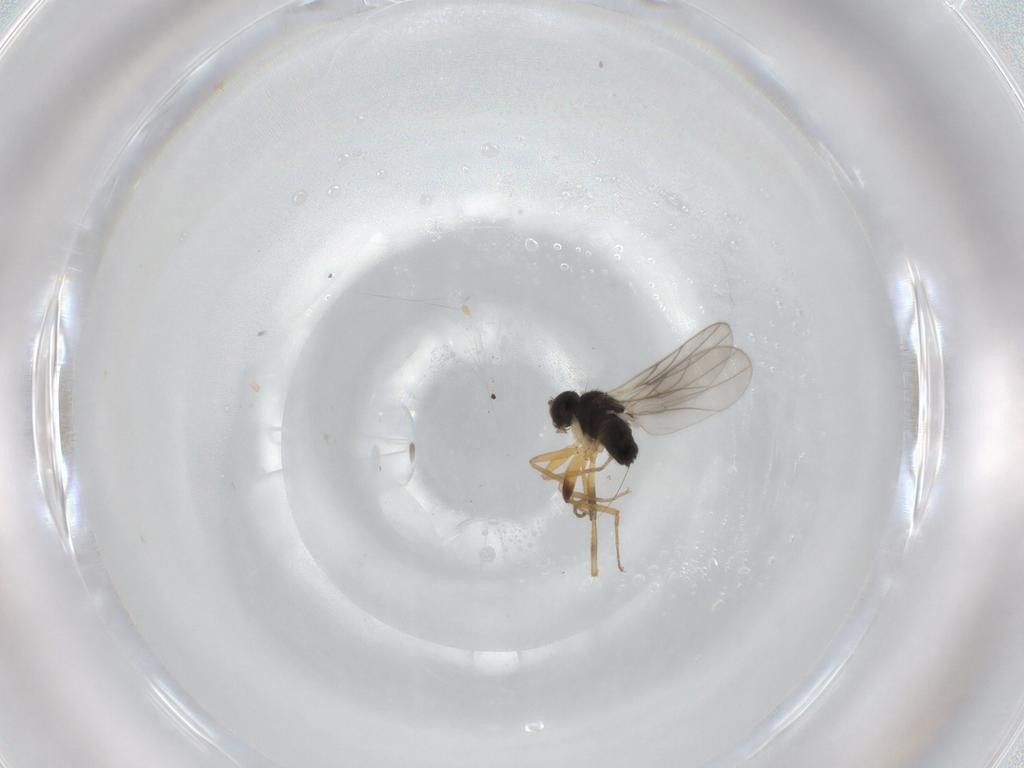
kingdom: Animalia
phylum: Arthropoda
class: Insecta
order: Diptera
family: Hybotidae
